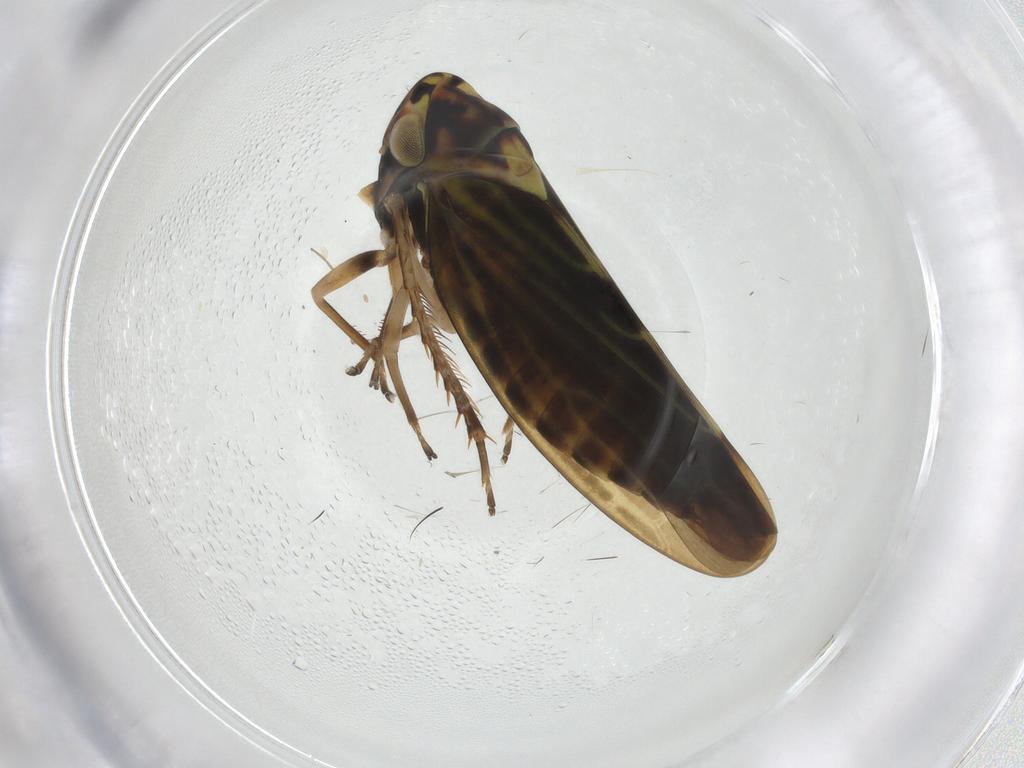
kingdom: Animalia
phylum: Arthropoda
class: Insecta
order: Hemiptera
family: Cicadellidae
